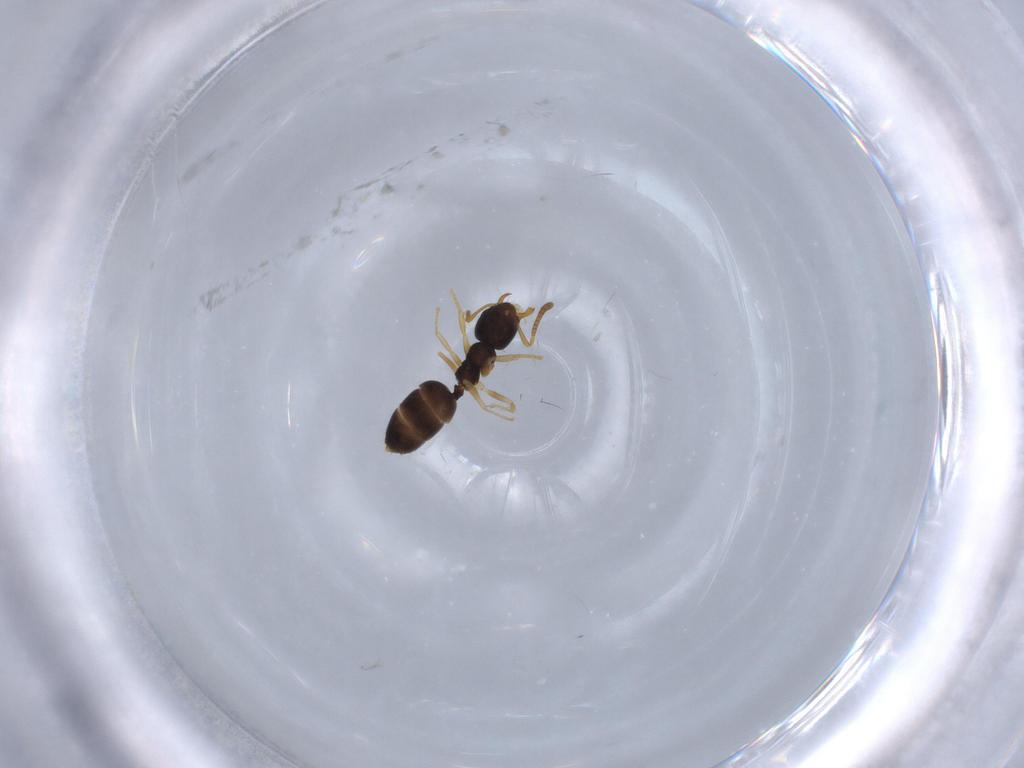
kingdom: Animalia
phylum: Arthropoda
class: Insecta
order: Hymenoptera
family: Formicidae
